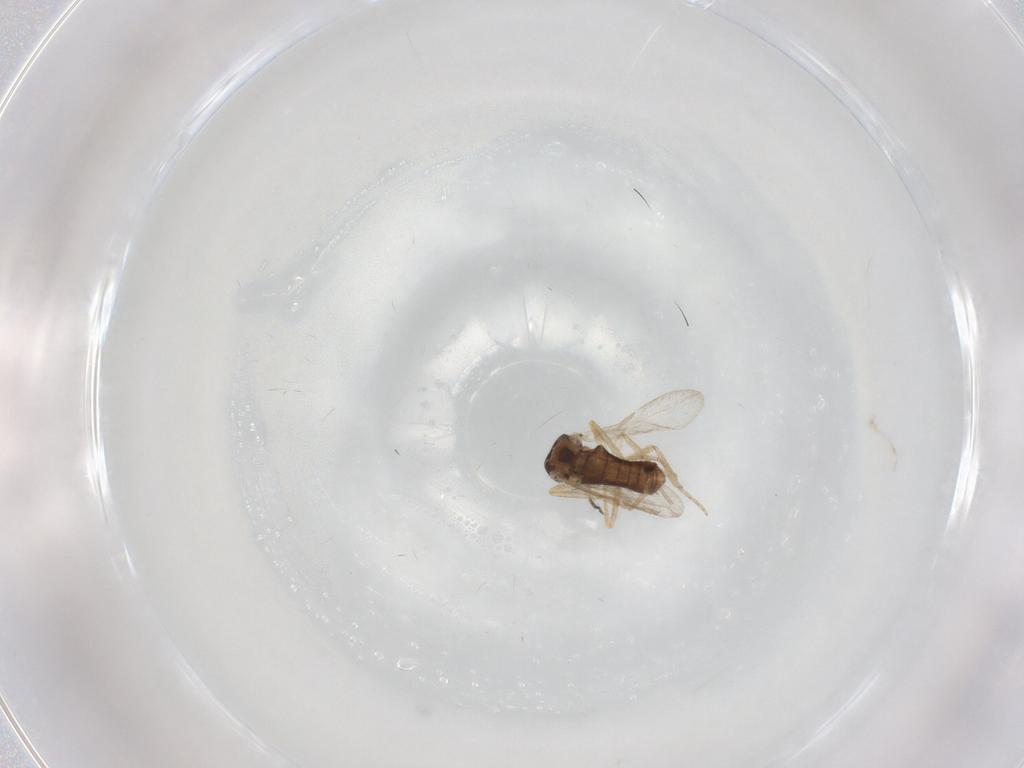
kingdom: Animalia
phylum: Arthropoda
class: Insecta
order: Diptera
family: Ceratopogonidae
